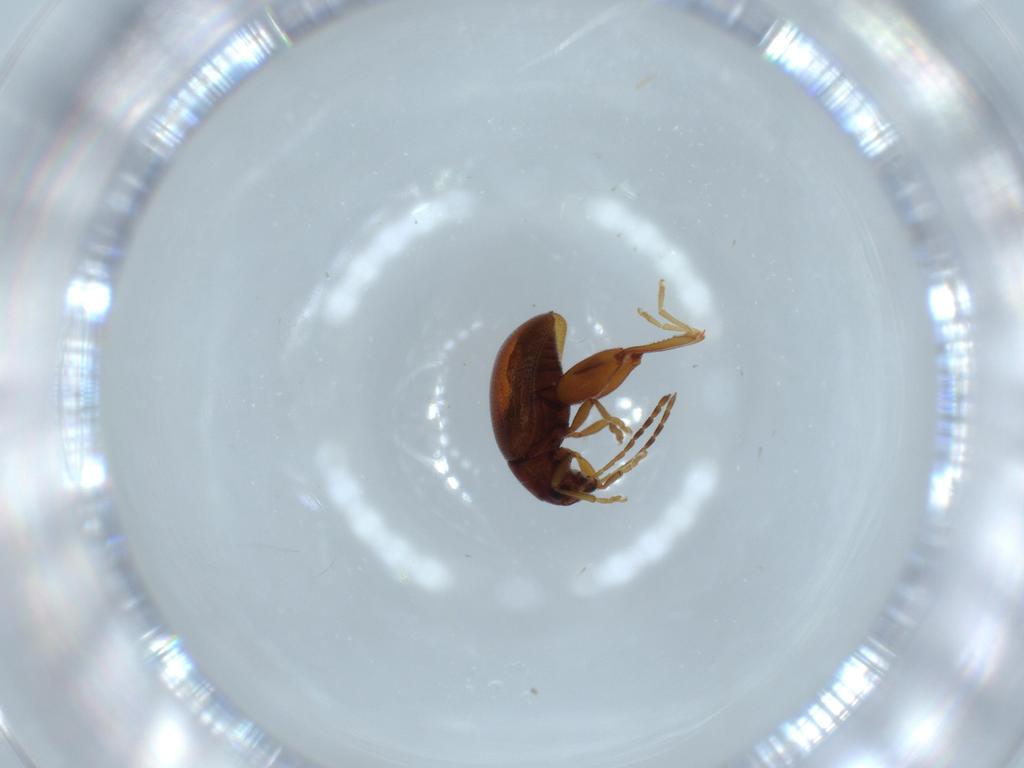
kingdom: Animalia
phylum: Arthropoda
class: Insecta
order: Coleoptera
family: Chrysomelidae
